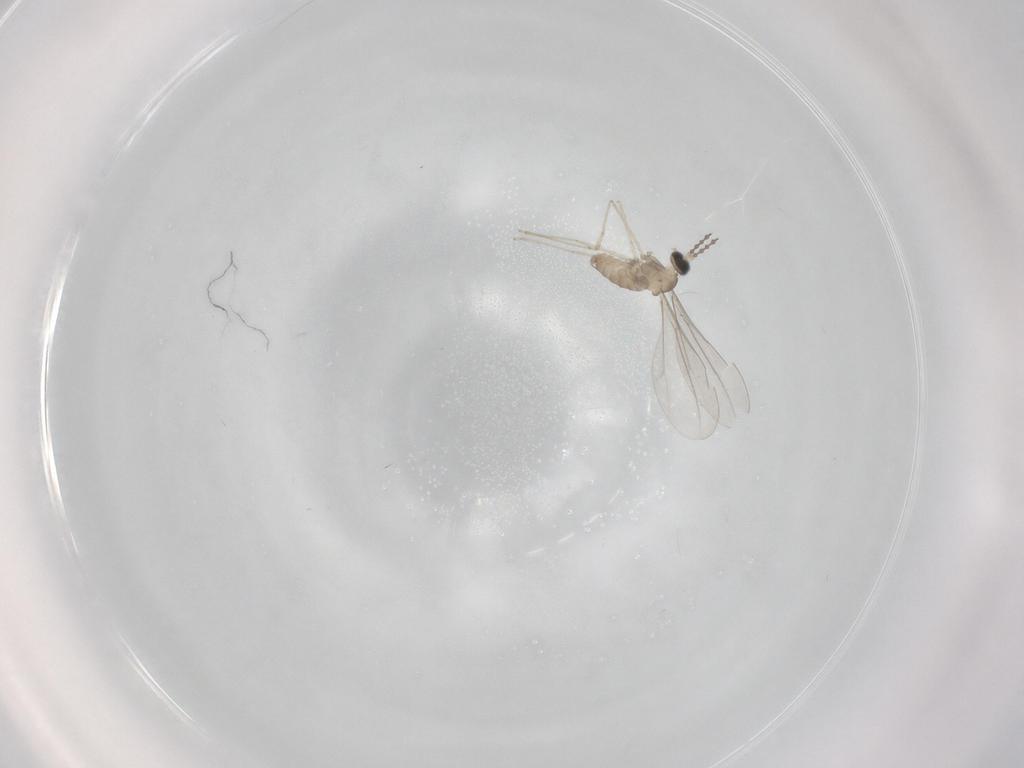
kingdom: Animalia
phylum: Arthropoda
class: Insecta
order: Diptera
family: Cecidomyiidae
